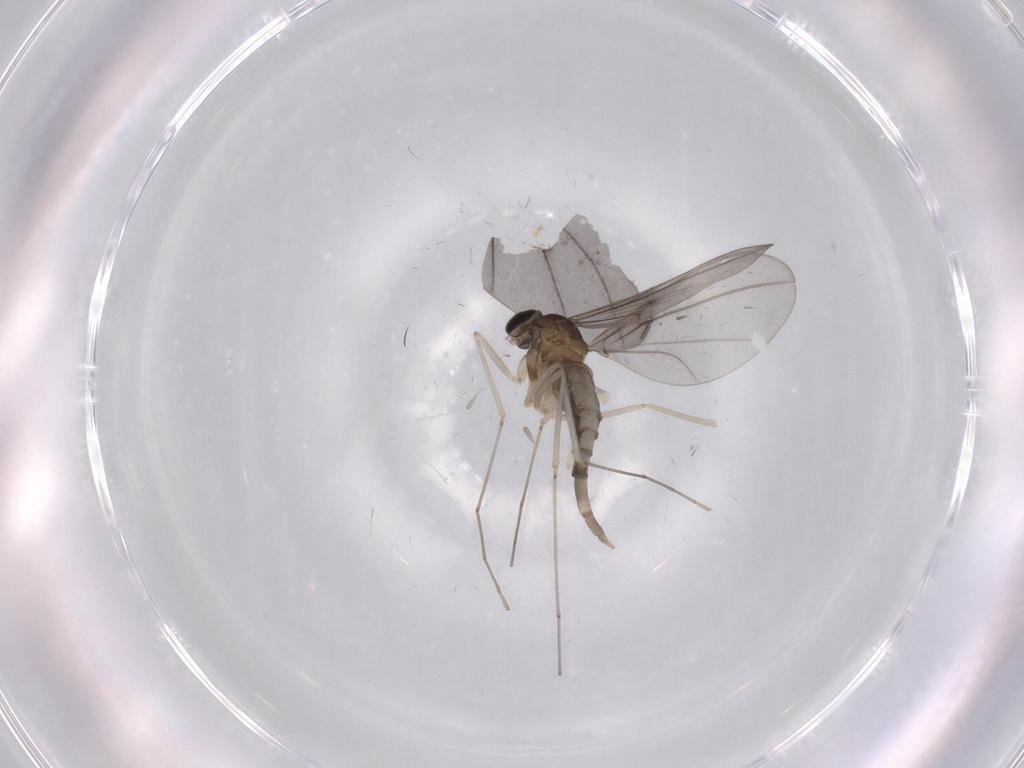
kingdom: Animalia
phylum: Arthropoda
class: Insecta
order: Diptera
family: Cecidomyiidae
